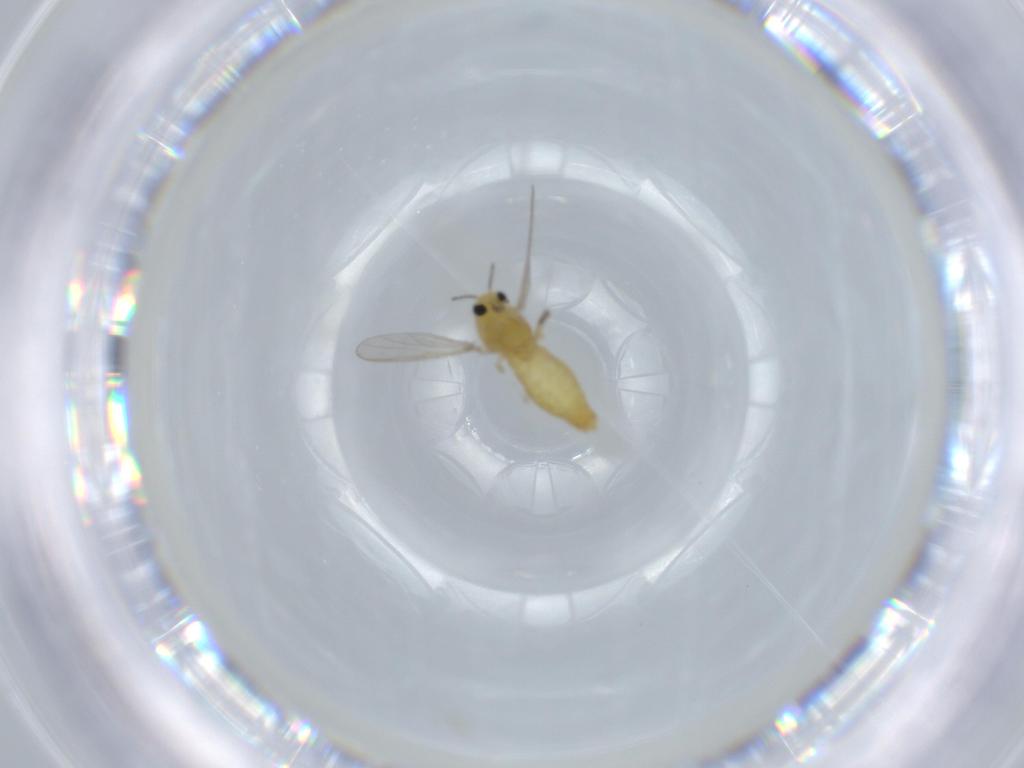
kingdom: Animalia
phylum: Arthropoda
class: Insecta
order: Diptera
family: Chironomidae
